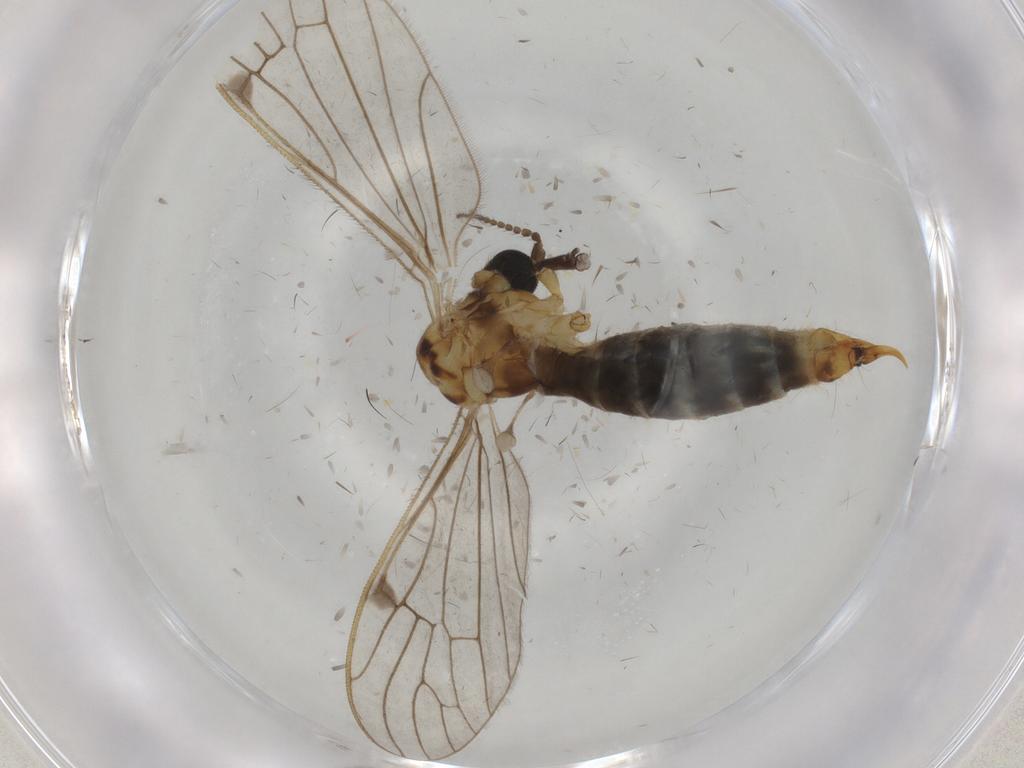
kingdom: Animalia
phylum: Arthropoda
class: Insecta
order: Diptera
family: Limoniidae
